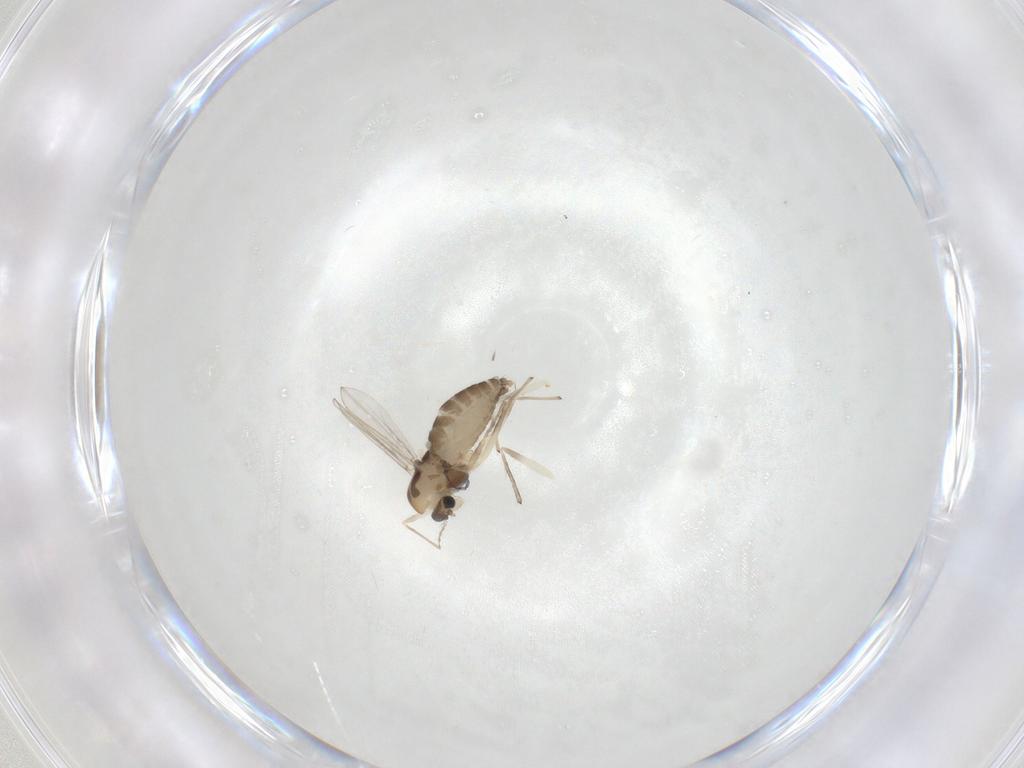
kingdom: Animalia
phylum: Arthropoda
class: Insecta
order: Diptera
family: Chironomidae
